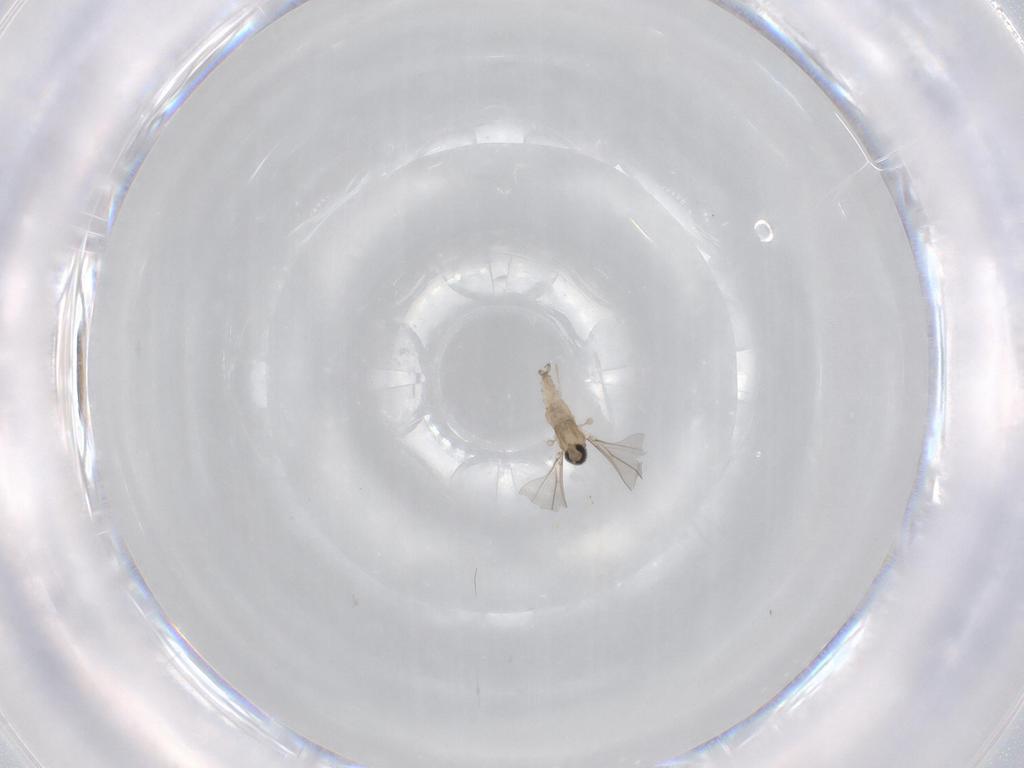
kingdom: Animalia
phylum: Arthropoda
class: Insecta
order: Diptera
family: Cecidomyiidae
